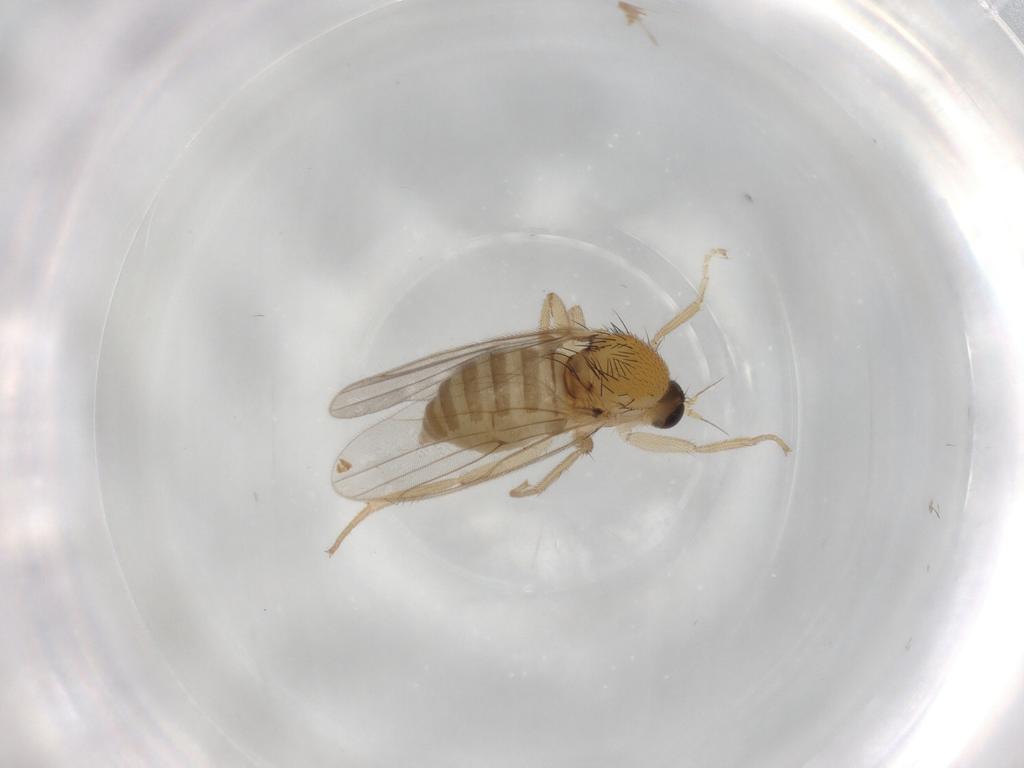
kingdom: Animalia
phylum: Arthropoda
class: Insecta
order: Diptera
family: Hybotidae
